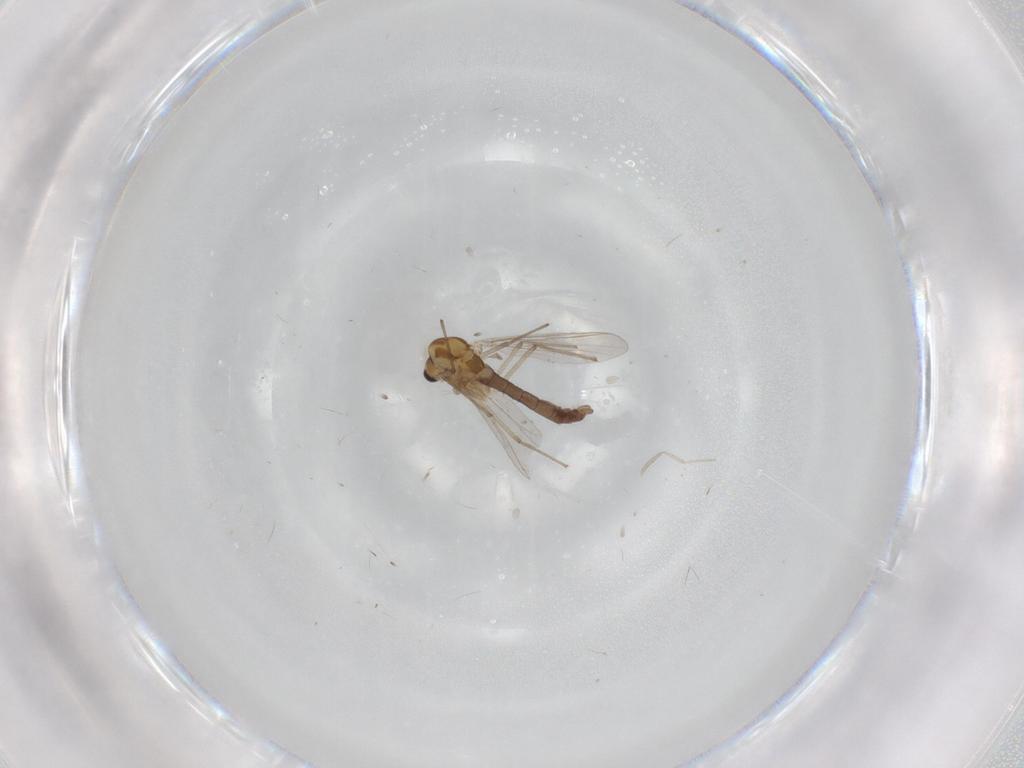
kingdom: Animalia
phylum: Arthropoda
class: Insecta
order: Diptera
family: Chironomidae
